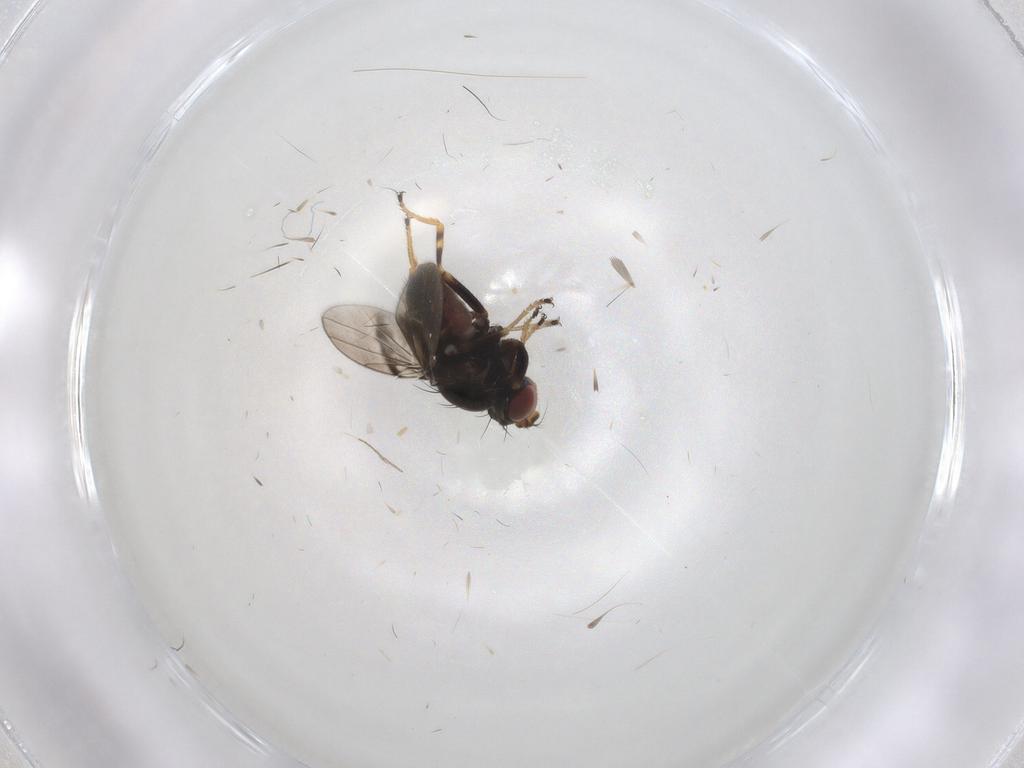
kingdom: Animalia
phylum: Arthropoda
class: Insecta
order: Diptera
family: Ephydridae
